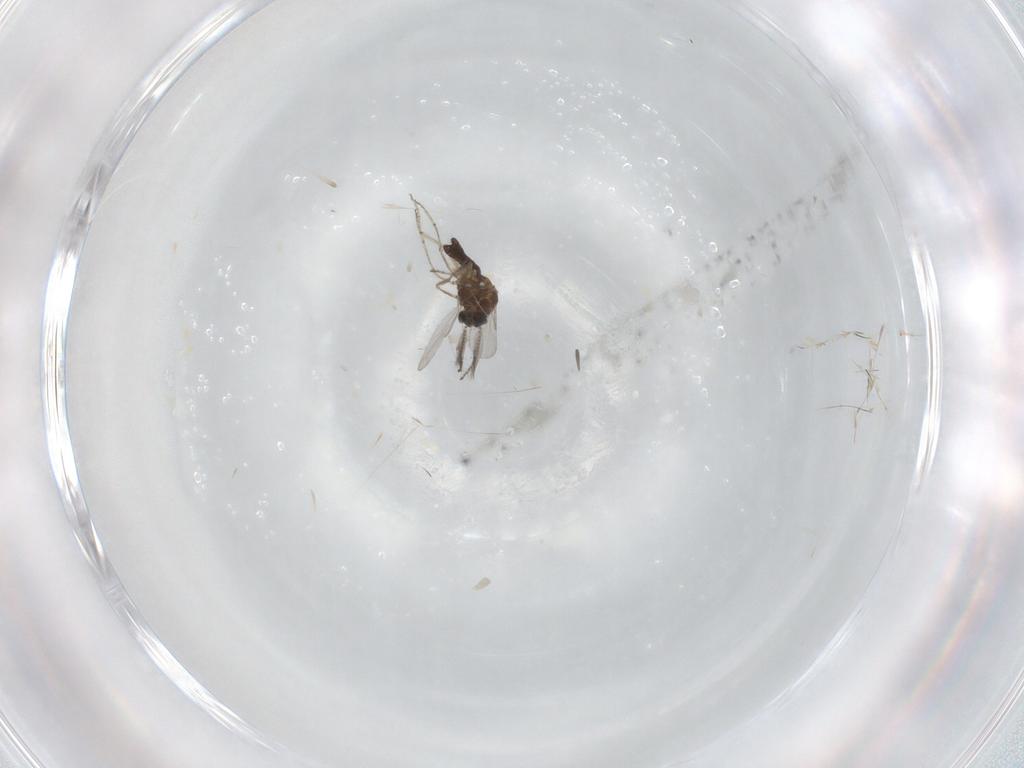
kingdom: Animalia
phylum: Arthropoda
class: Insecta
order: Diptera
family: Ceratopogonidae
